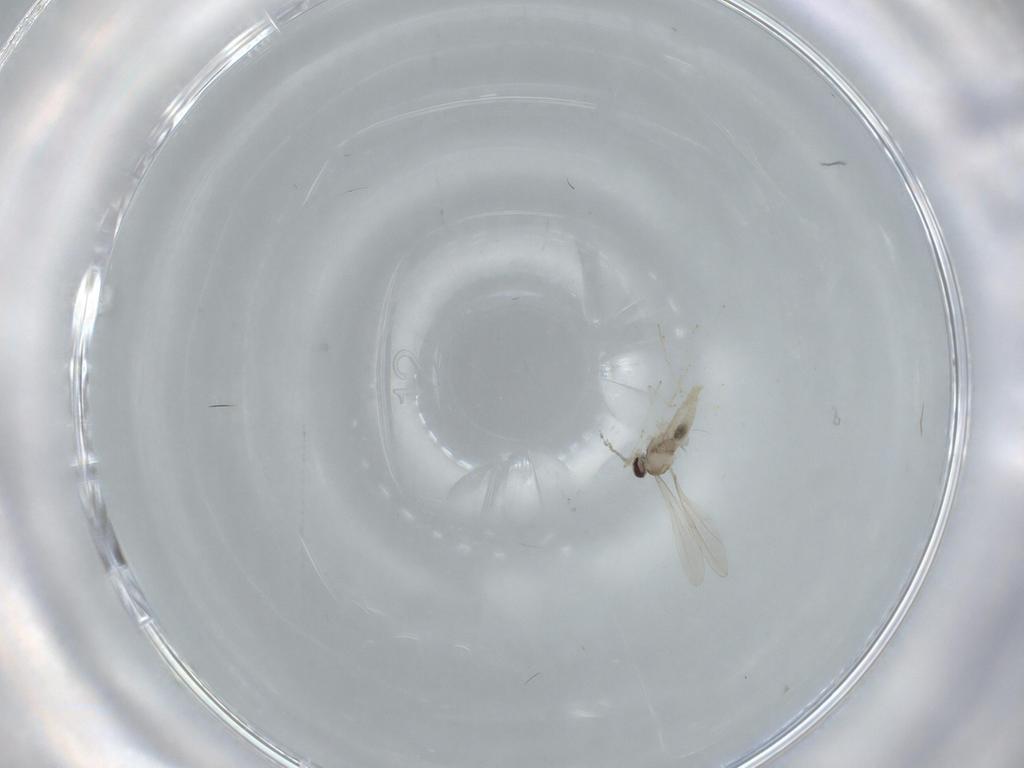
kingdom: Animalia
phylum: Arthropoda
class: Insecta
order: Diptera
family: Cecidomyiidae
